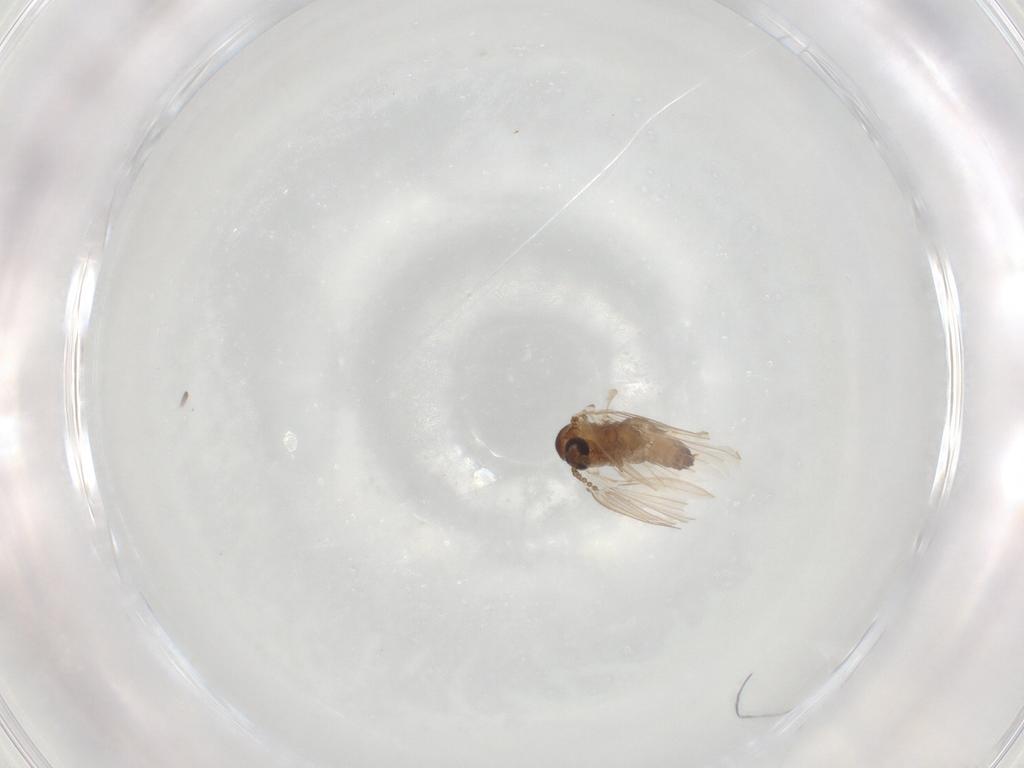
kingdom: Animalia
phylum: Arthropoda
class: Insecta
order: Diptera
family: Psychodidae
